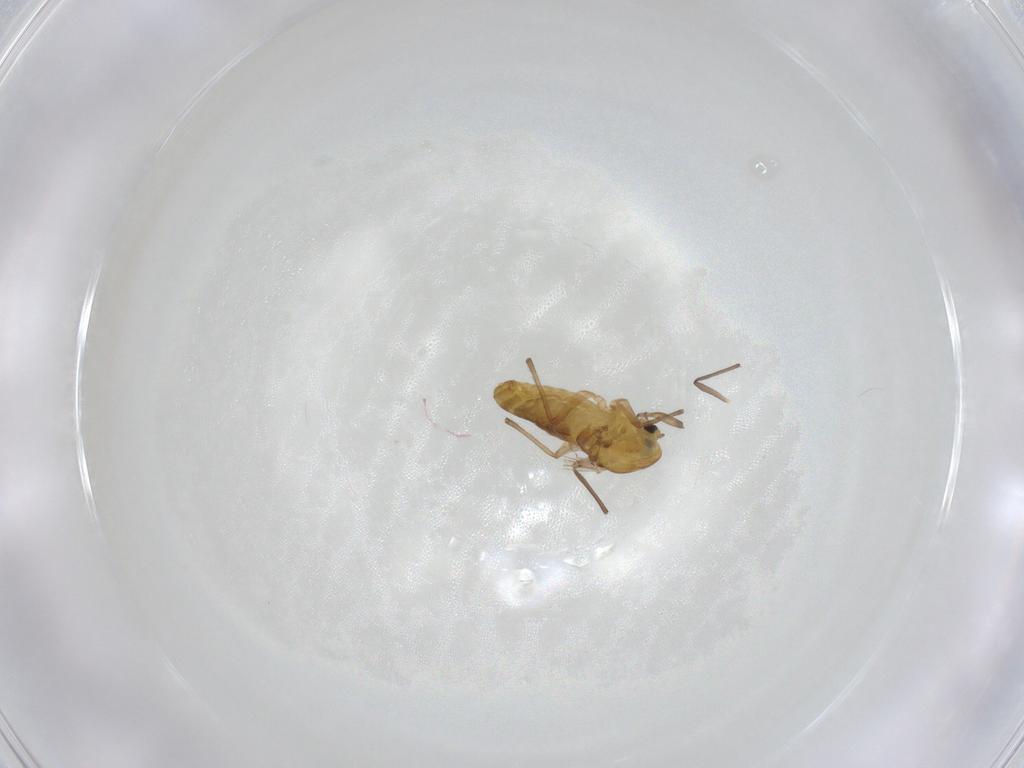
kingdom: Animalia
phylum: Arthropoda
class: Insecta
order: Diptera
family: Chironomidae
